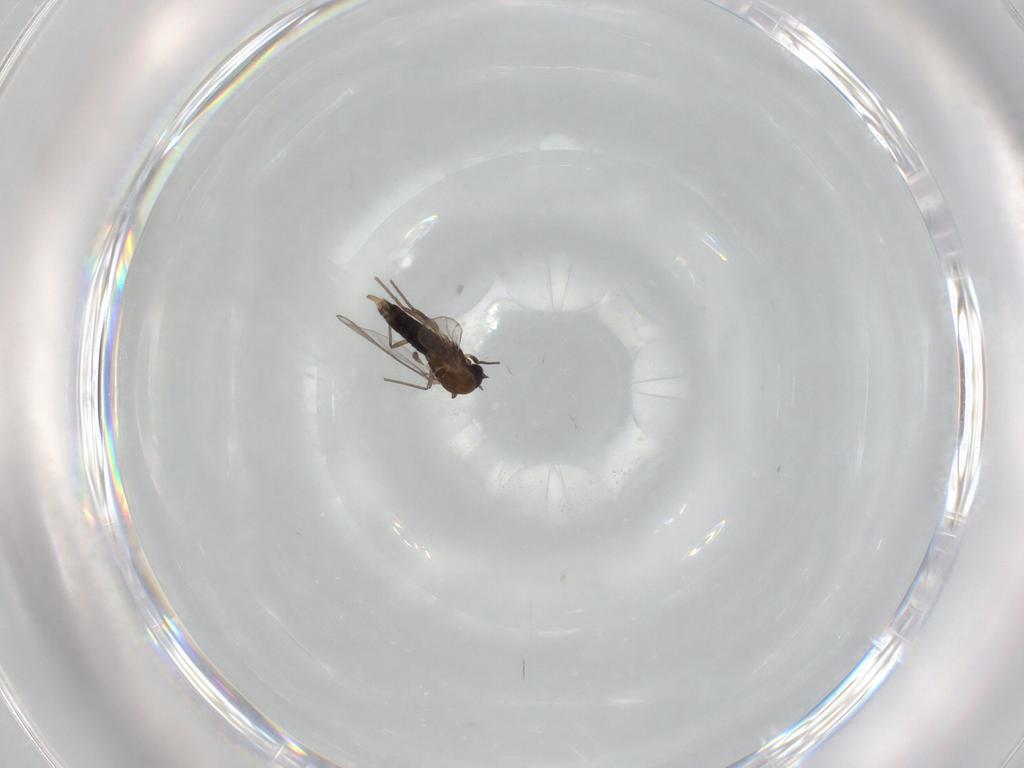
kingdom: Animalia
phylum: Arthropoda
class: Insecta
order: Diptera
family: Chironomidae
